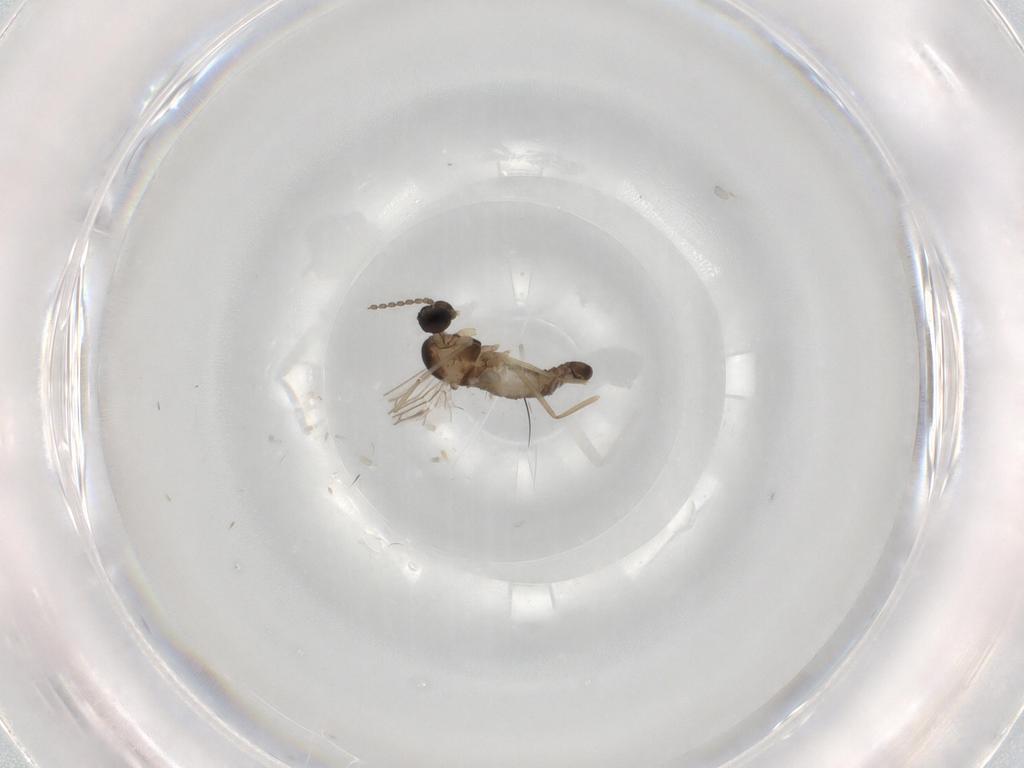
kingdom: Animalia
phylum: Arthropoda
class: Insecta
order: Diptera
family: Cecidomyiidae
